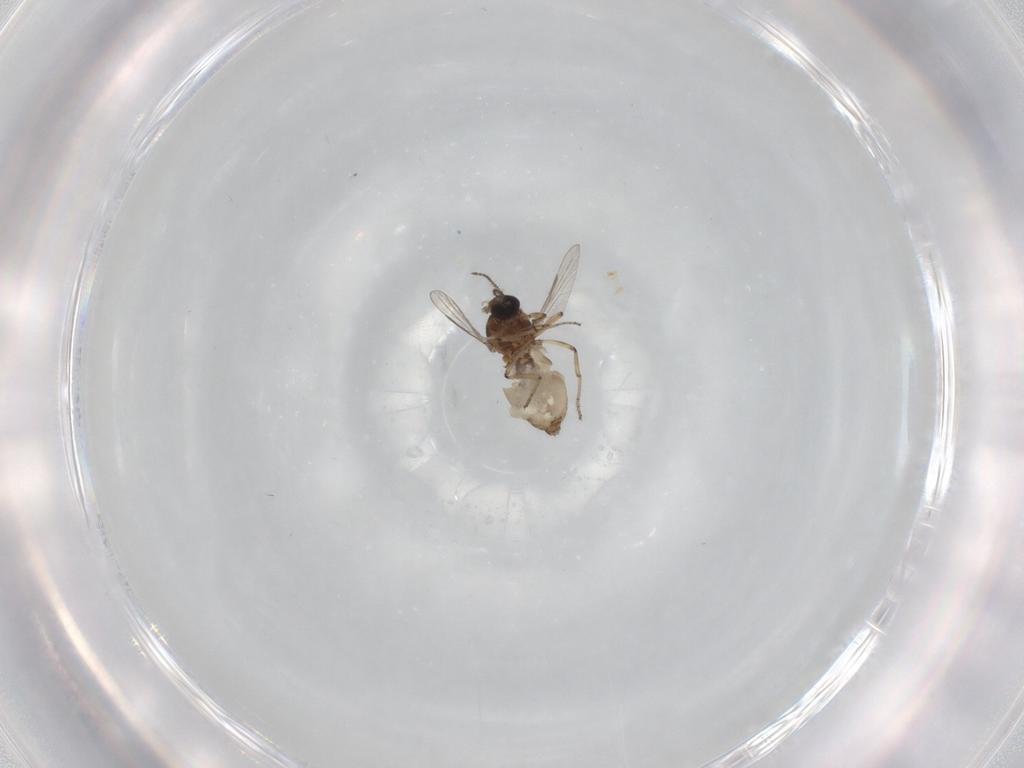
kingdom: Animalia
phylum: Arthropoda
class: Insecta
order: Diptera
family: Ceratopogonidae
